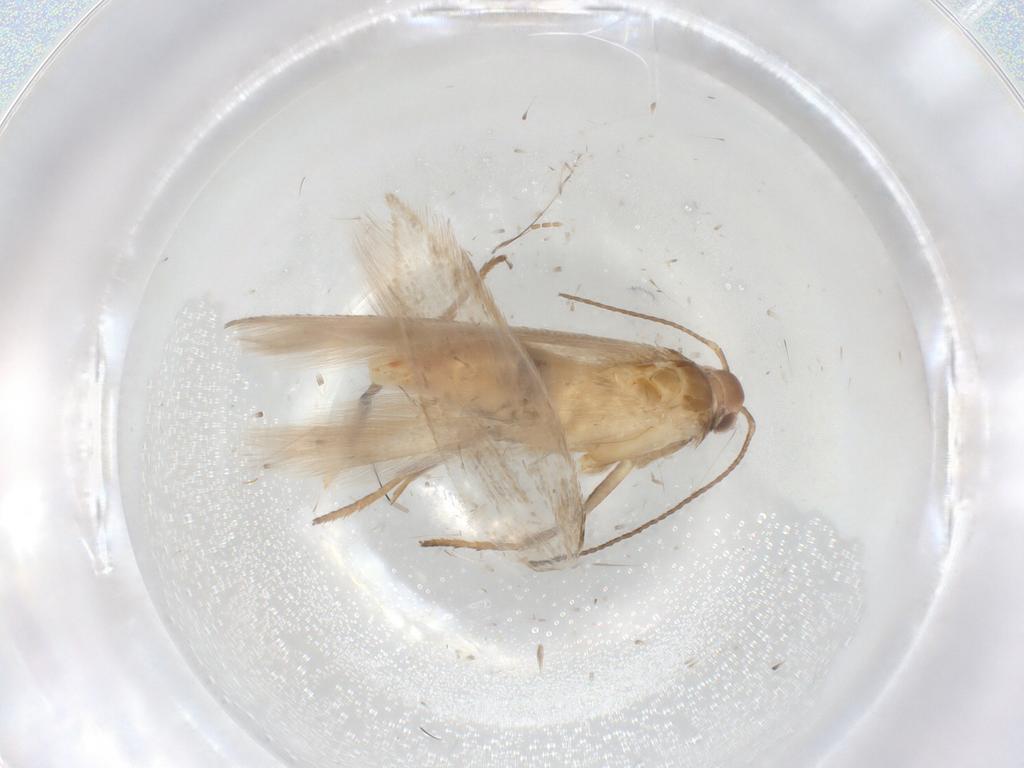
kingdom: Animalia
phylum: Arthropoda
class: Insecta
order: Lepidoptera
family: Gelechiidae
